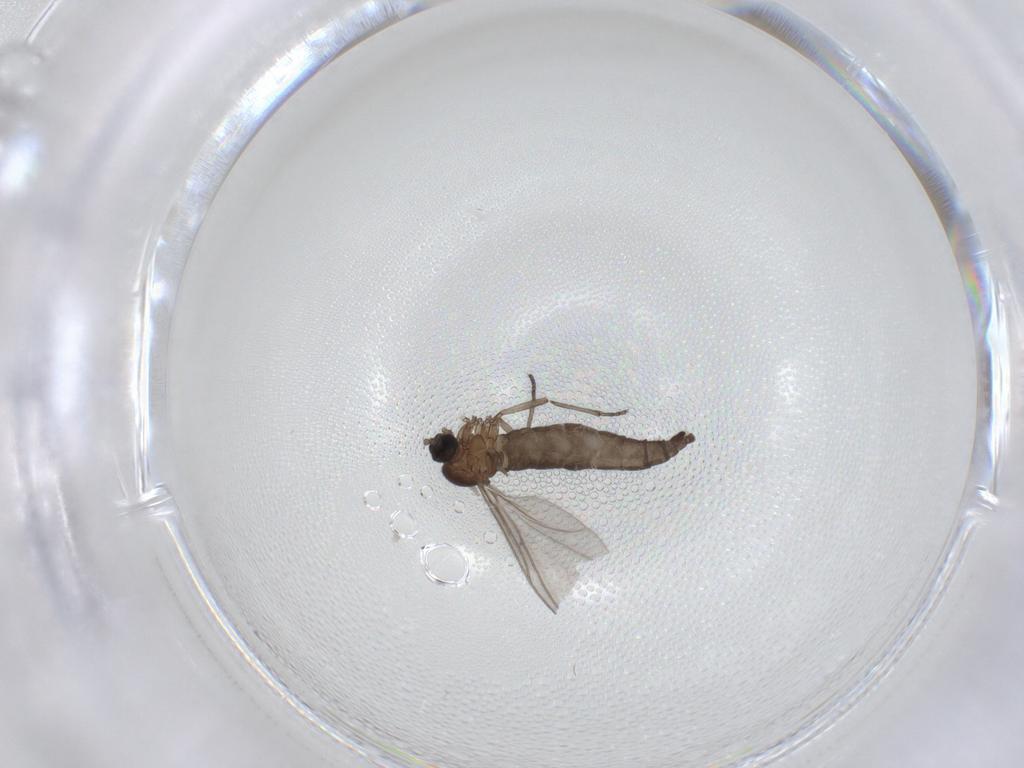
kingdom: Animalia
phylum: Arthropoda
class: Insecta
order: Diptera
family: Sciaridae
